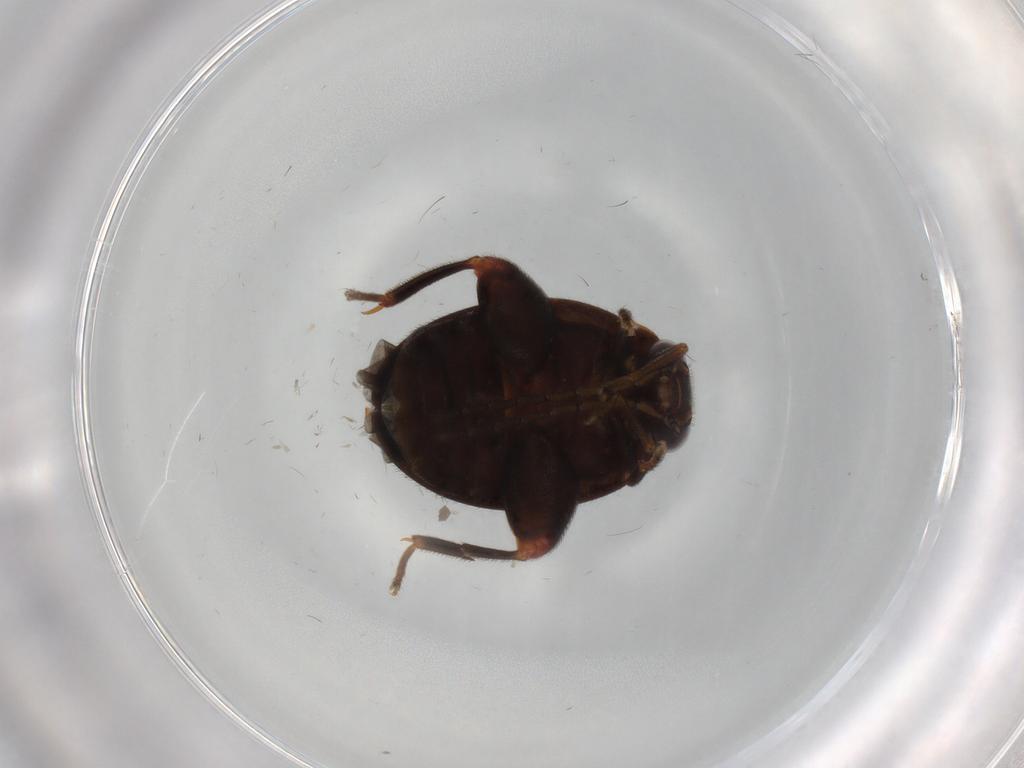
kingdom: Animalia
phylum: Arthropoda
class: Insecta
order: Coleoptera
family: Scirtidae
